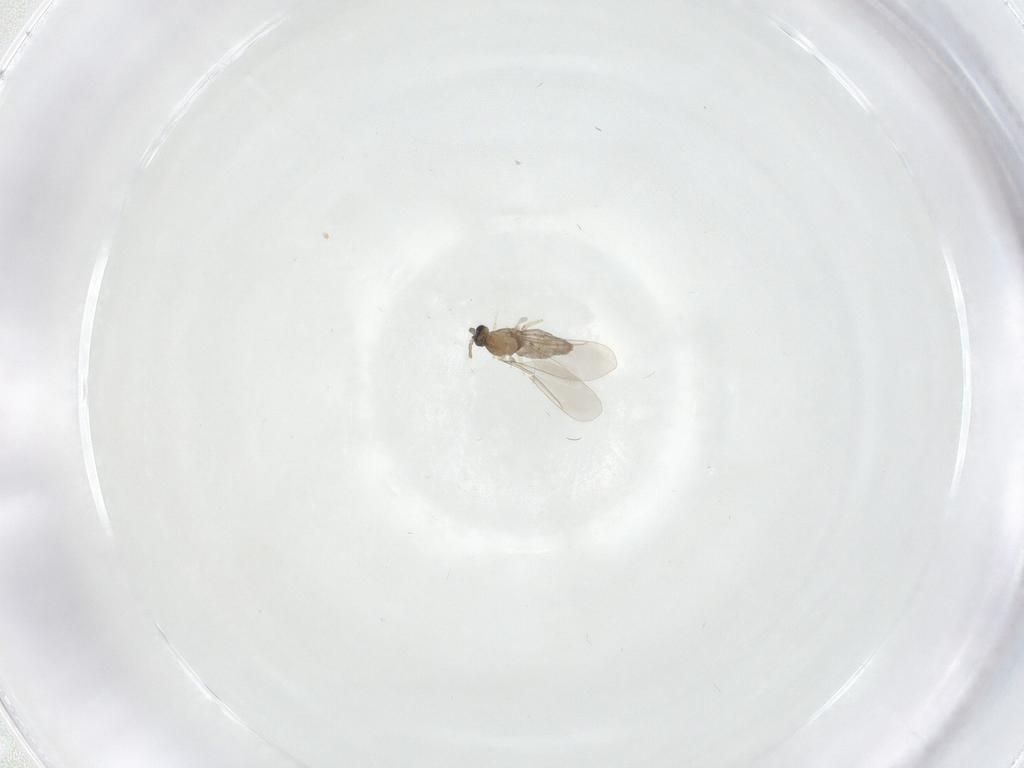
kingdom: Animalia
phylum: Arthropoda
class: Insecta
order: Diptera
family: Cecidomyiidae
